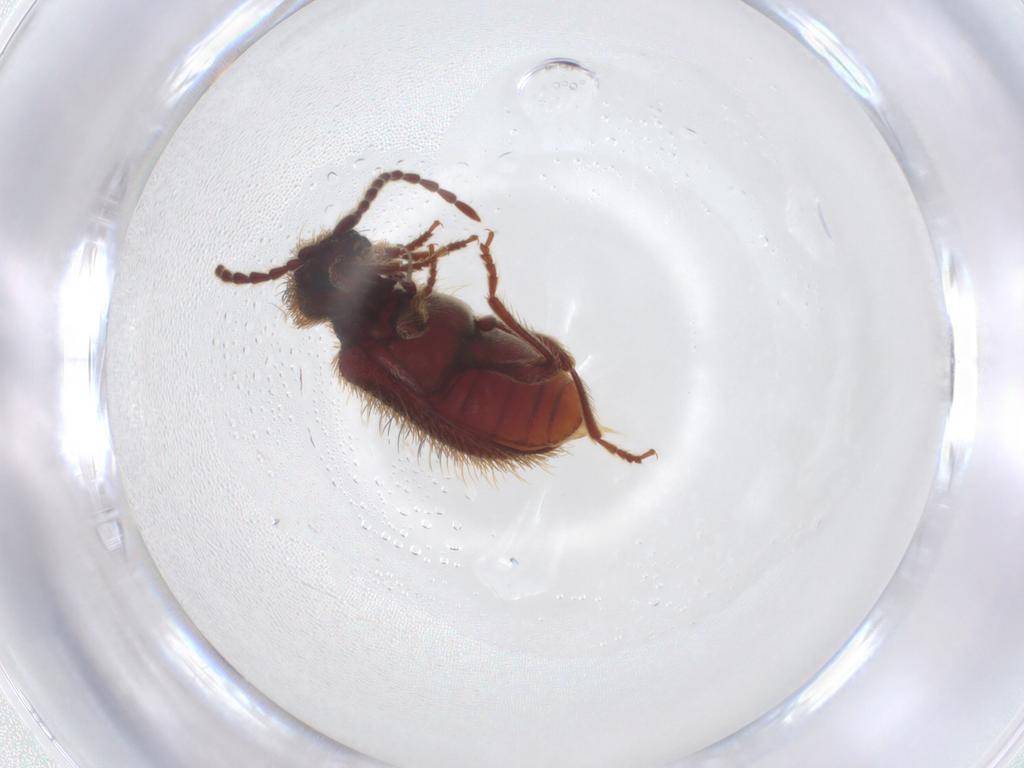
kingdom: Animalia
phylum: Arthropoda
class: Insecta
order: Coleoptera
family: Ptinidae
